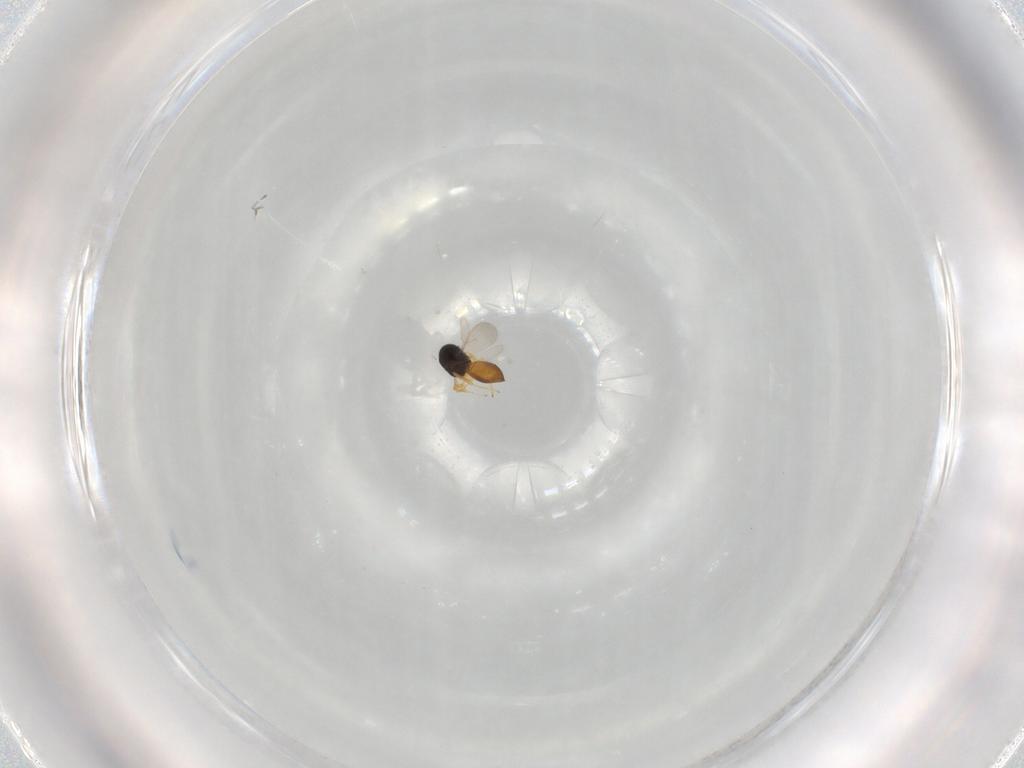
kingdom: Animalia
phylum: Arthropoda
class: Insecta
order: Hymenoptera
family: Scelionidae
